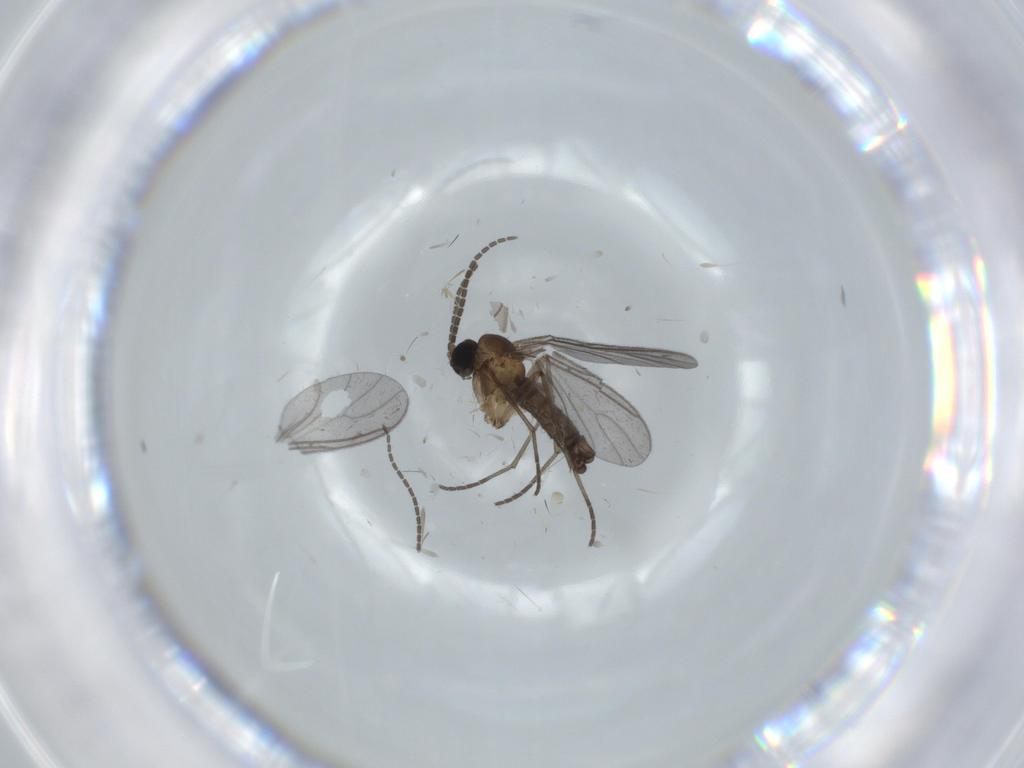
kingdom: Animalia
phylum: Arthropoda
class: Insecta
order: Diptera
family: Sciaridae
